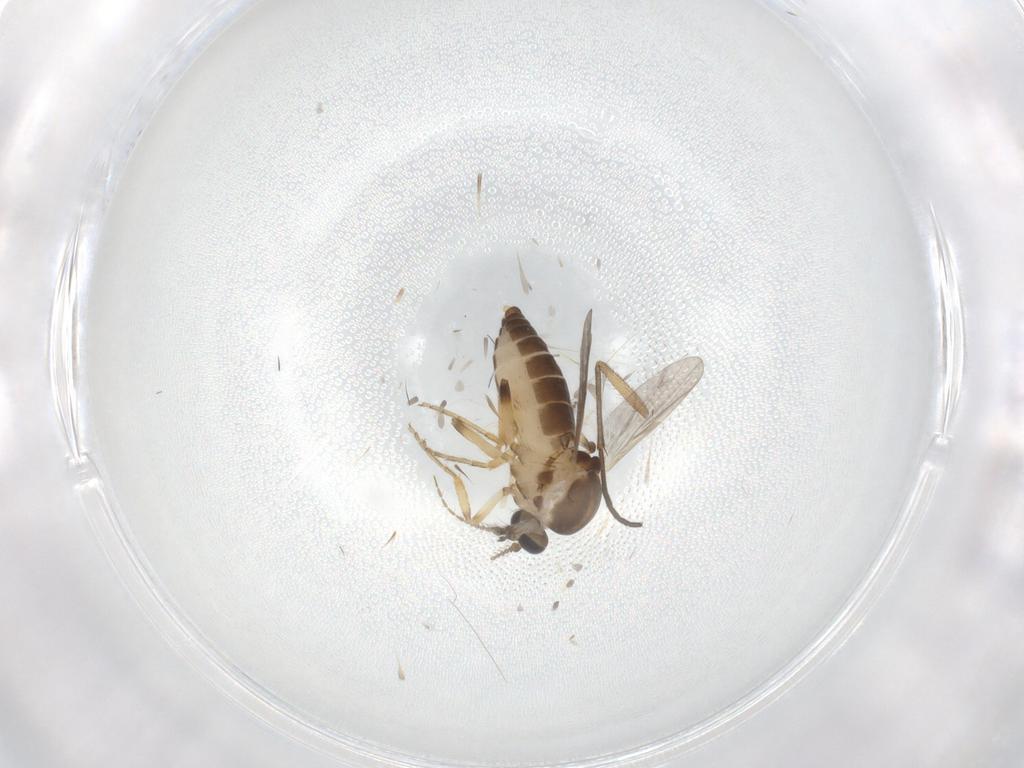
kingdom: Animalia
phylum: Arthropoda
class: Insecta
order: Diptera
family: Ceratopogonidae
